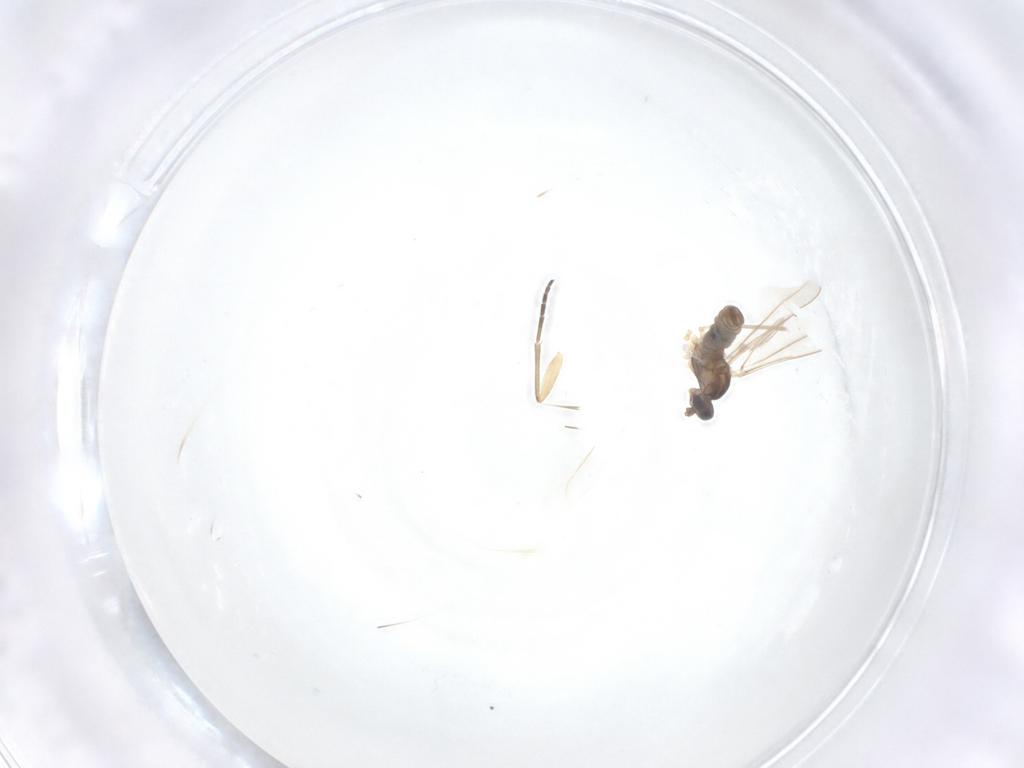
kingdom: Animalia
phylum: Arthropoda
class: Insecta
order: Diptera
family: Cecidomyiidae
